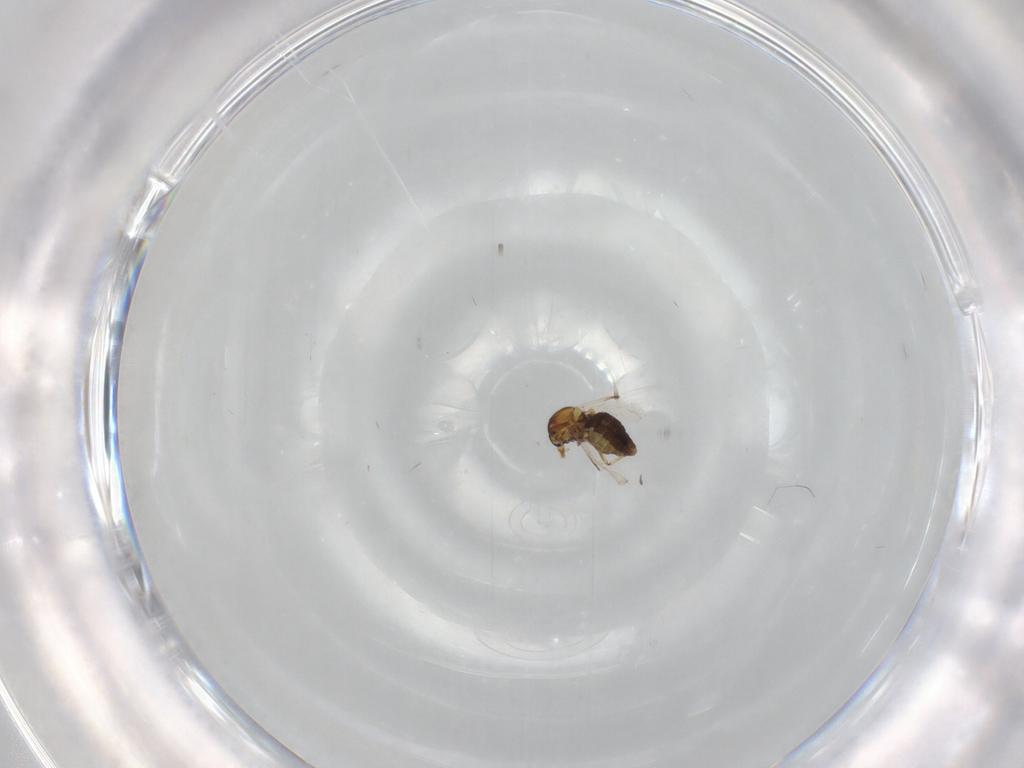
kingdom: Animalia
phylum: Arthropoda
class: Insecta
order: Diptera
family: Ceratopogonidae
